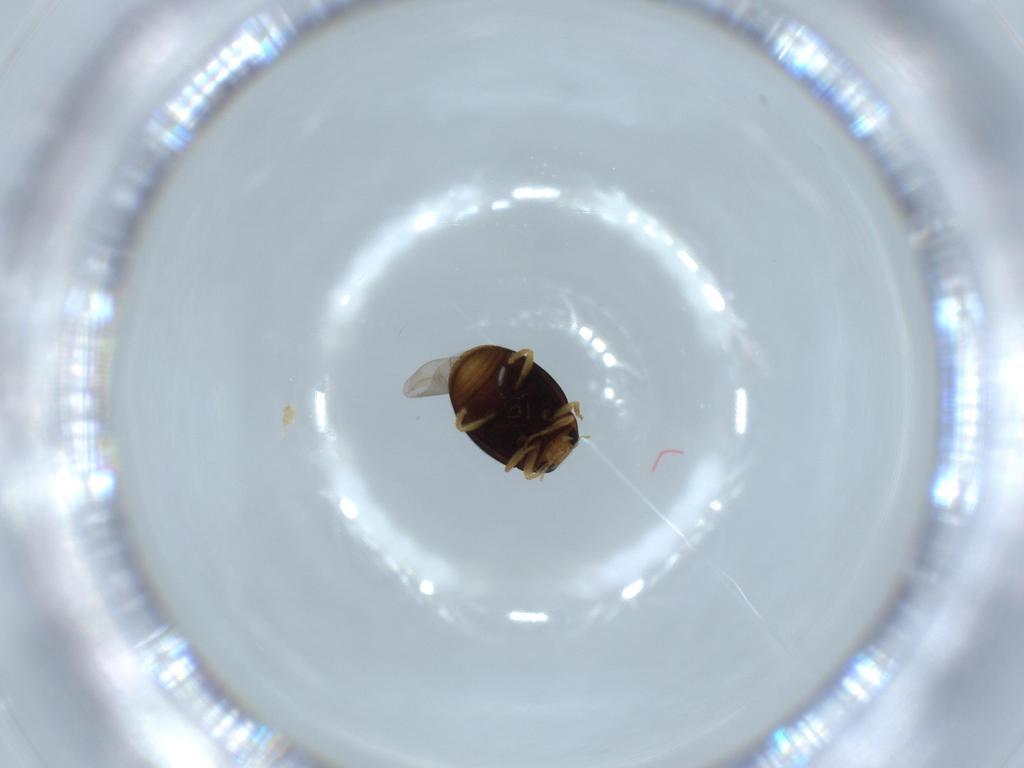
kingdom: Animalia
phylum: Arthropoda
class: Insecta
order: Coleoptera
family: Coccinellidae
